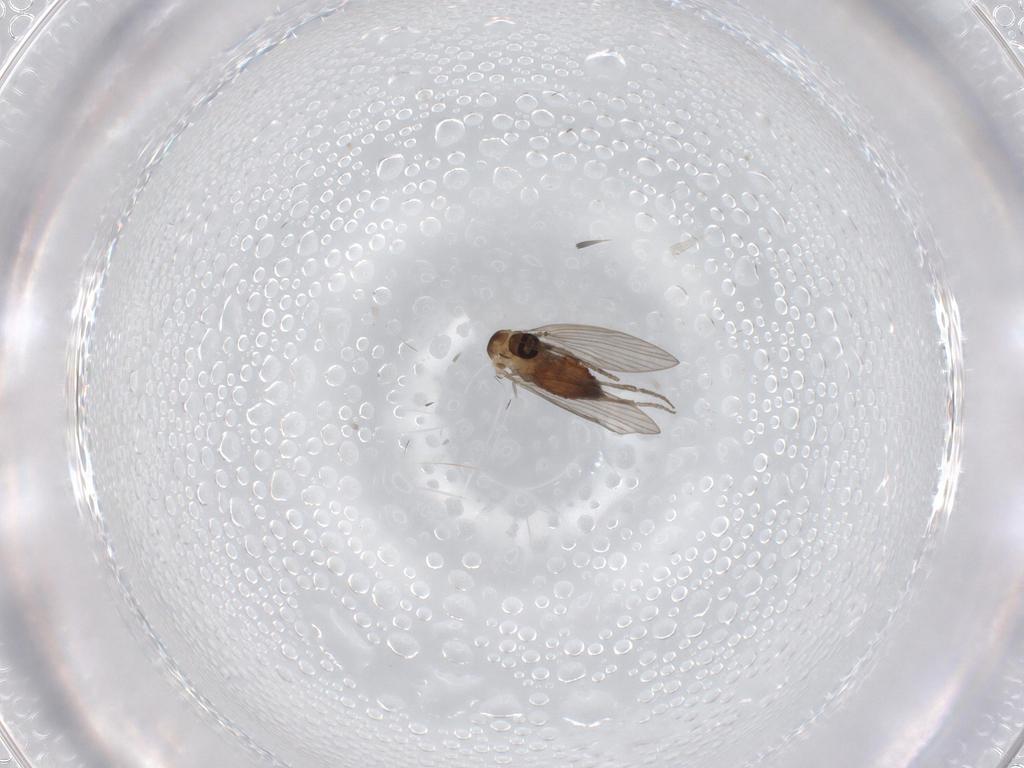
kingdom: Animalia
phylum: Arthropoda
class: Insecta
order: Diptera
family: Psychodidae
